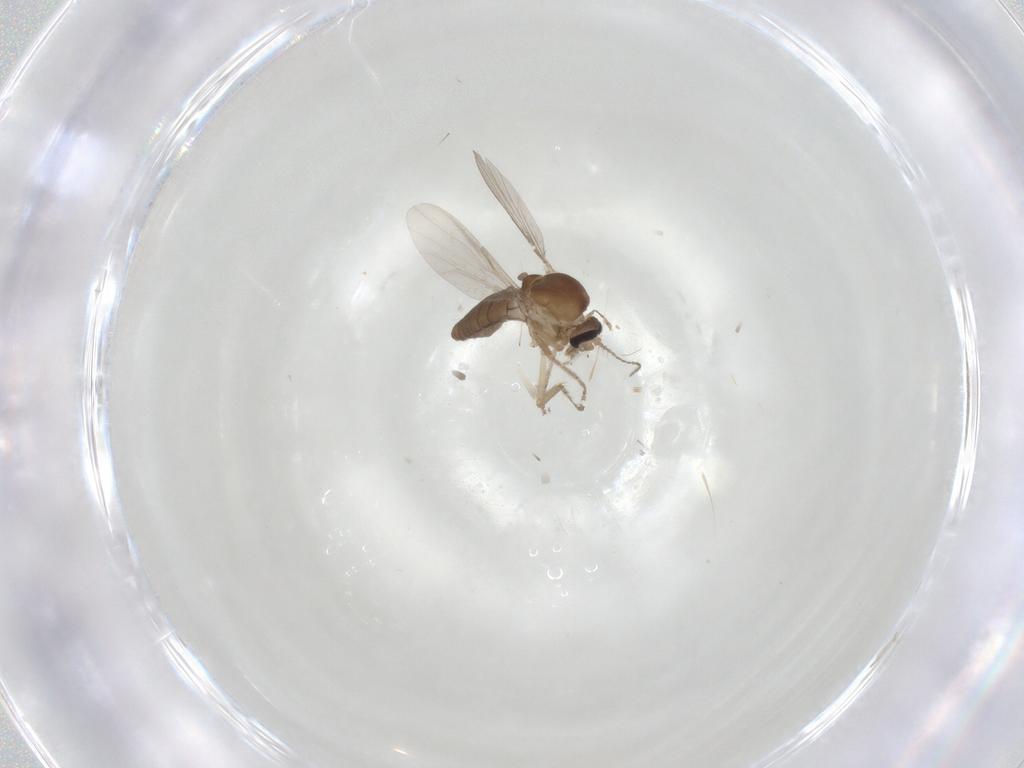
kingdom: Animalia
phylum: Arthropoda
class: Insecta
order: Diptera
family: Ceratopogonidae
